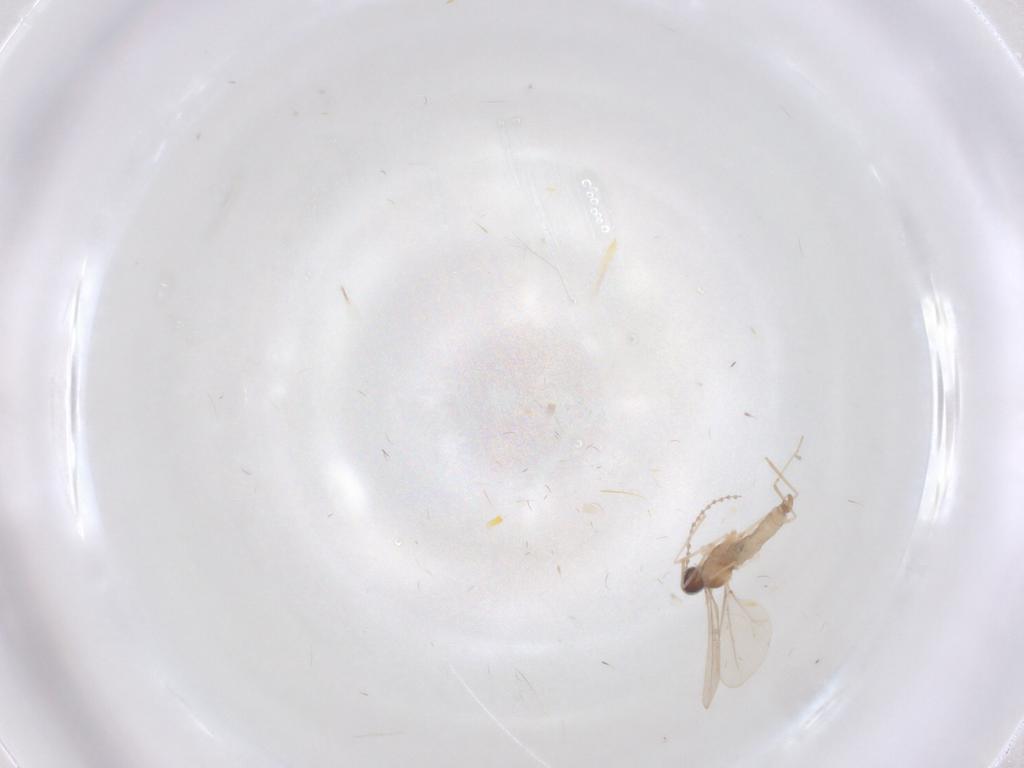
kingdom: Animalia
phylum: Arthropoda
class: Insecta
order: Diptera
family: Cecidomyiidae
